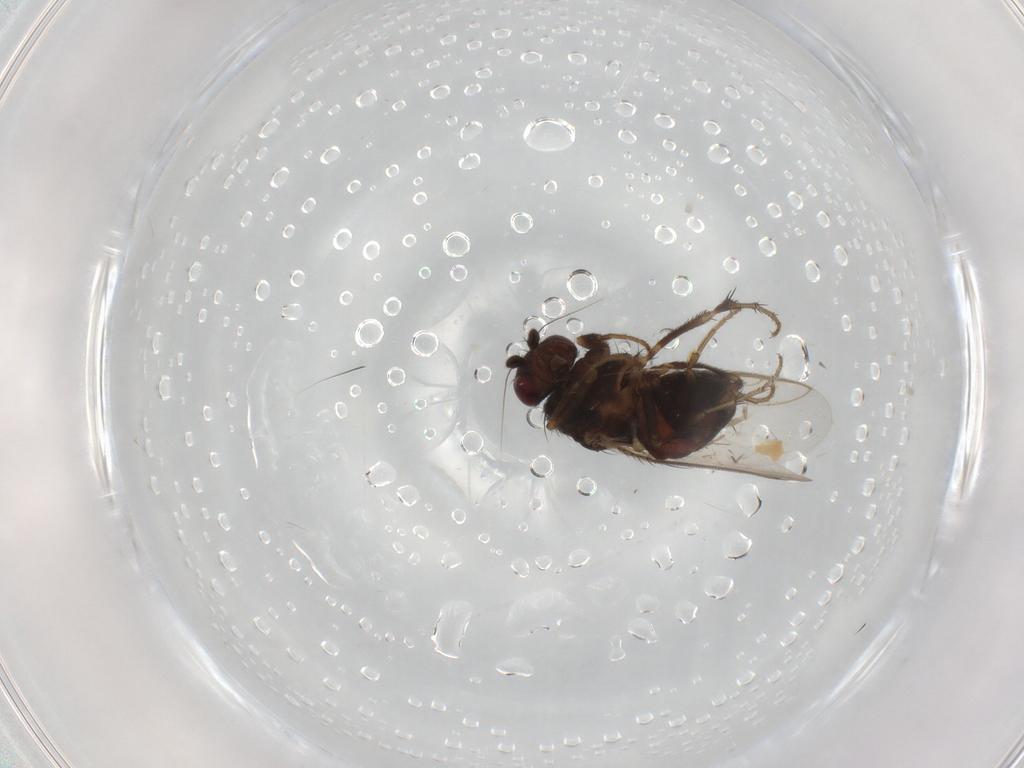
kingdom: Animalia
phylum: Arthropoda
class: Insecta
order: Diptera
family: Sphaeroceridae
